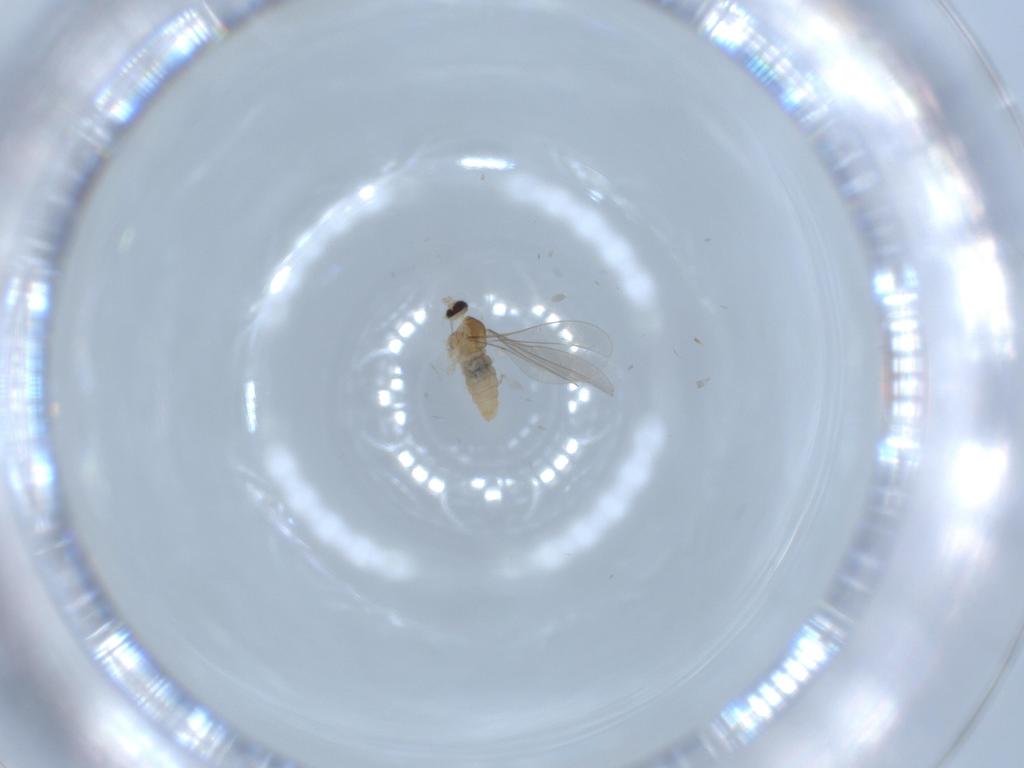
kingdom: Animalia
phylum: Arthropoda
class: Insecta
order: Diptera
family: Cecidomyiidae
